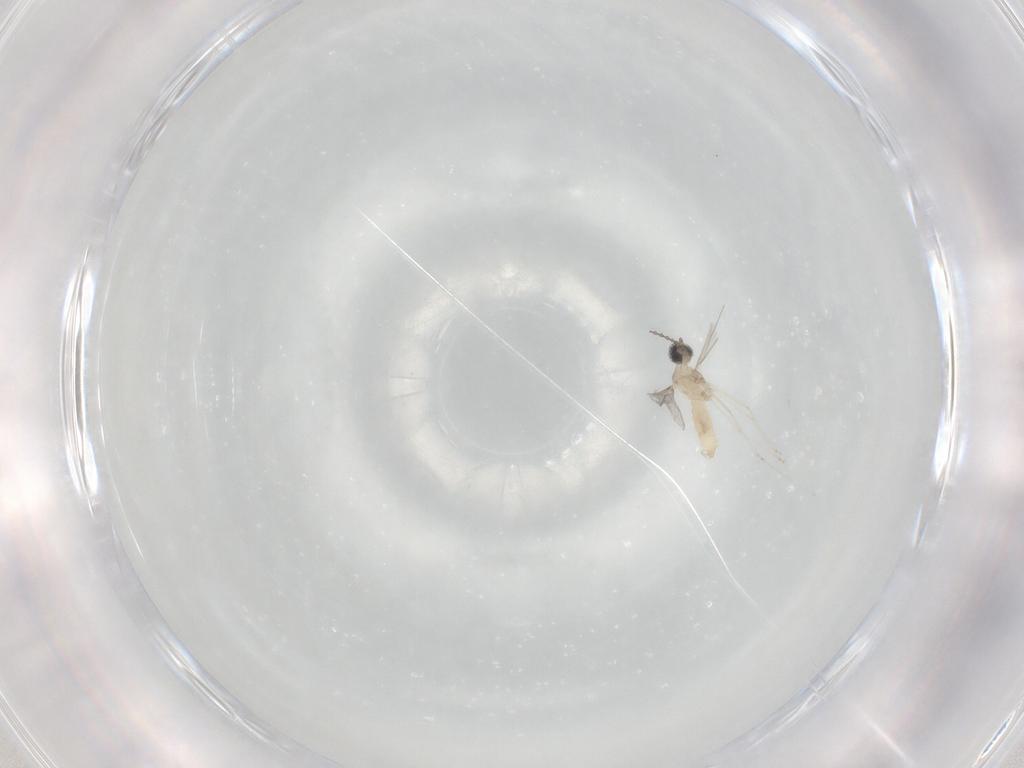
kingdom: Animalia
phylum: Arthropoda
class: Insecta
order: Diptera
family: Cecidomyiidae
